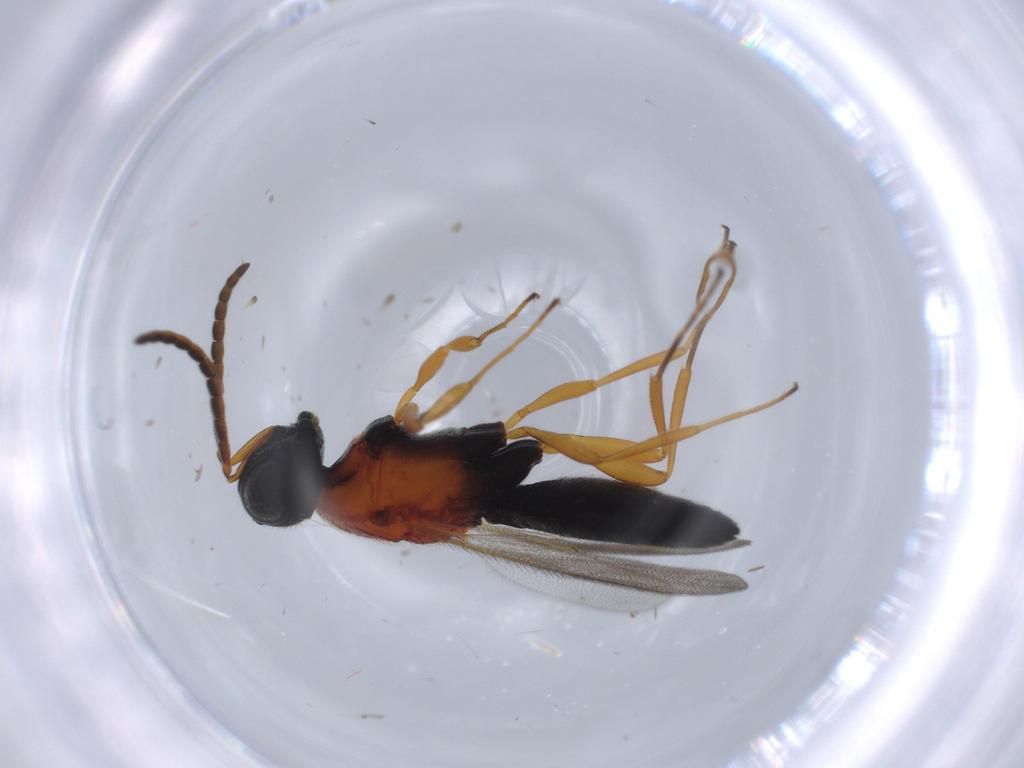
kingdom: Animalia
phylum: Arthropoda
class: Insecta
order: Hymenoptera
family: Scelionidae
